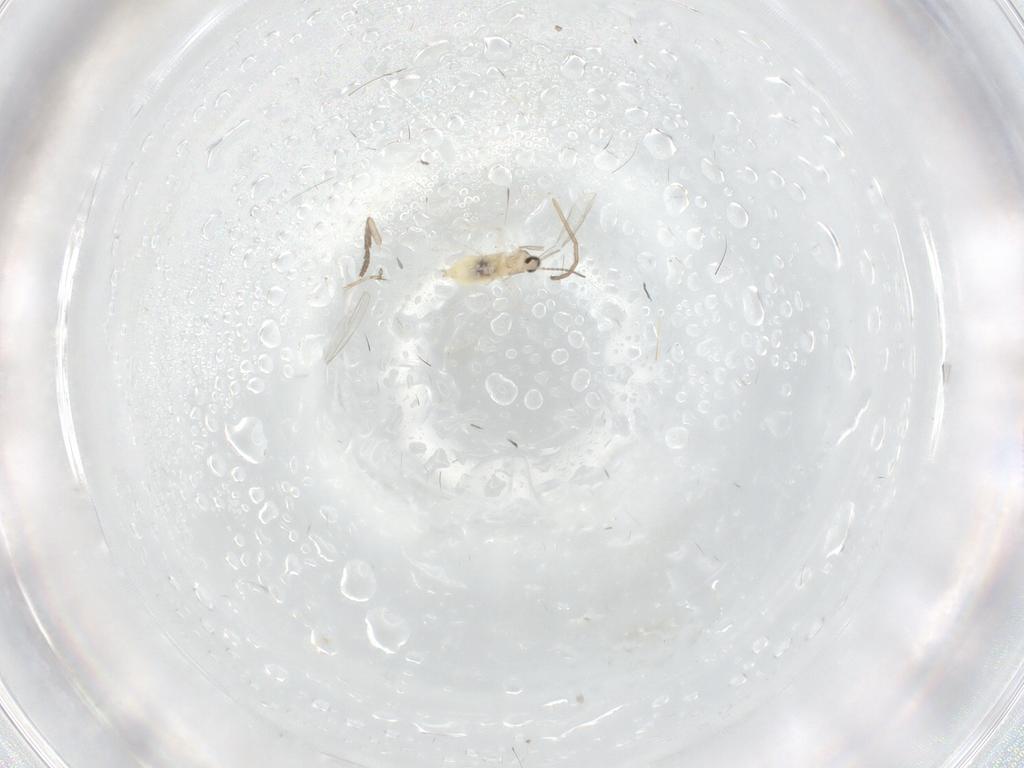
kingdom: Animalia
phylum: Arthropoda
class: Insecta
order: Diptera
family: Cecidomyiidae
